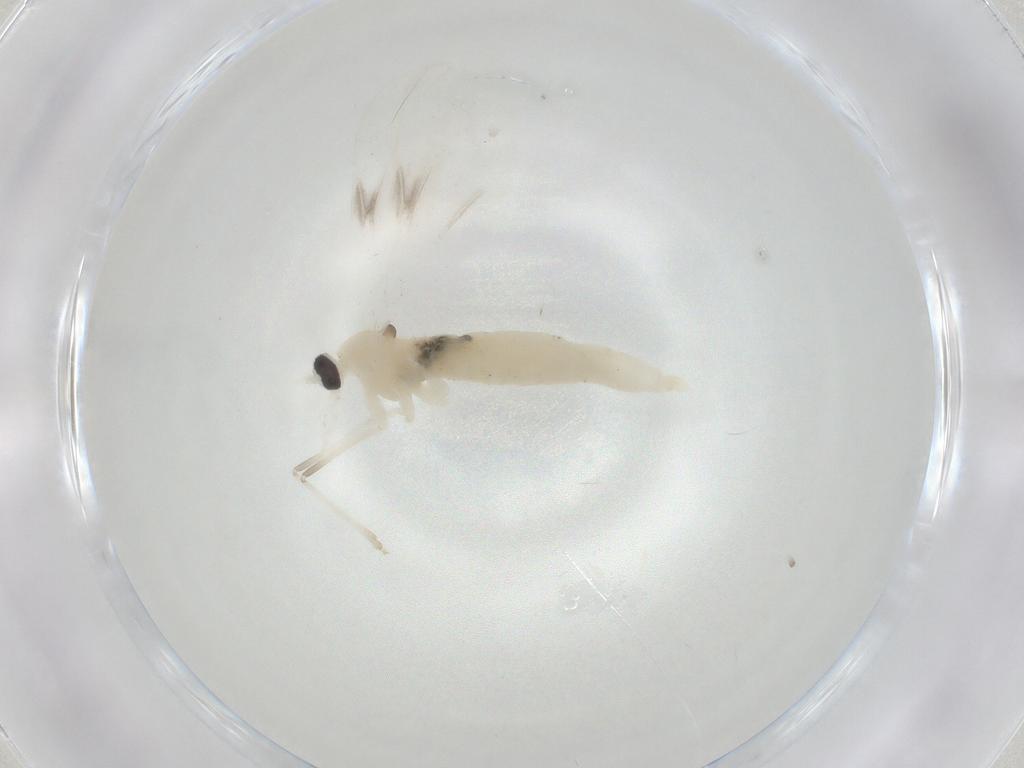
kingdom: Animalia
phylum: Arthropoda
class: Insecta
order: Diptera
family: Cecidomyiidae
